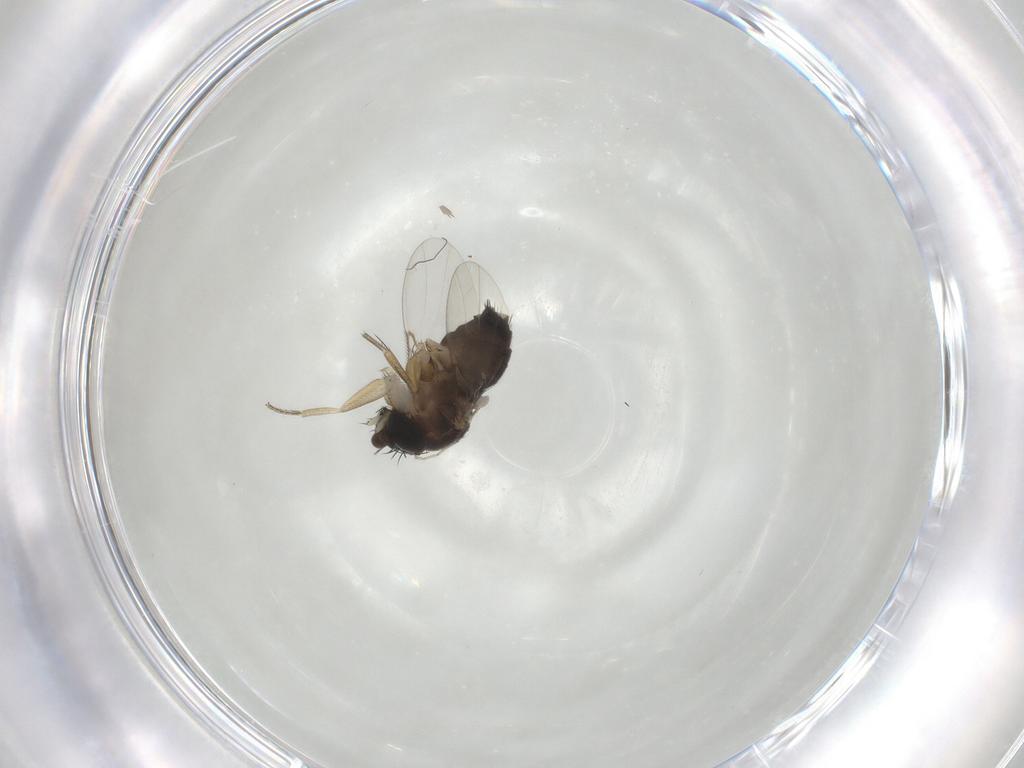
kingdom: Animalia
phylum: Arthropoda
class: Insecta
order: Diptera
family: Cecidomyiidae
